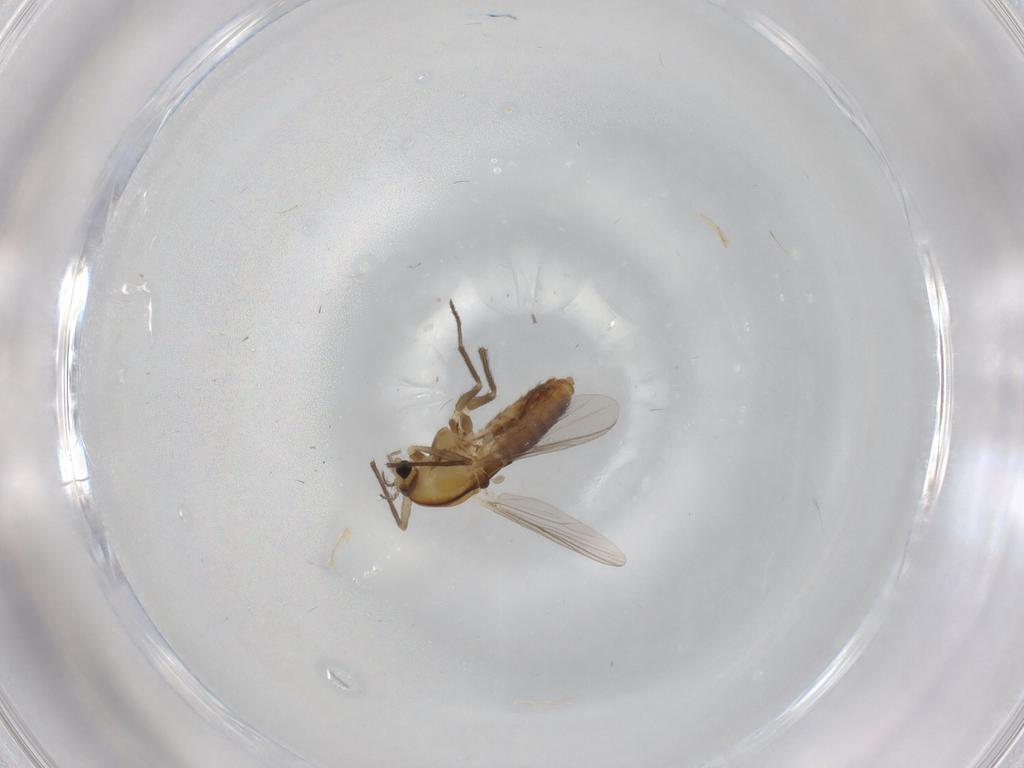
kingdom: Animalia
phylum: Arthropoda
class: Insecta
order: Diptera
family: Chironomidae
